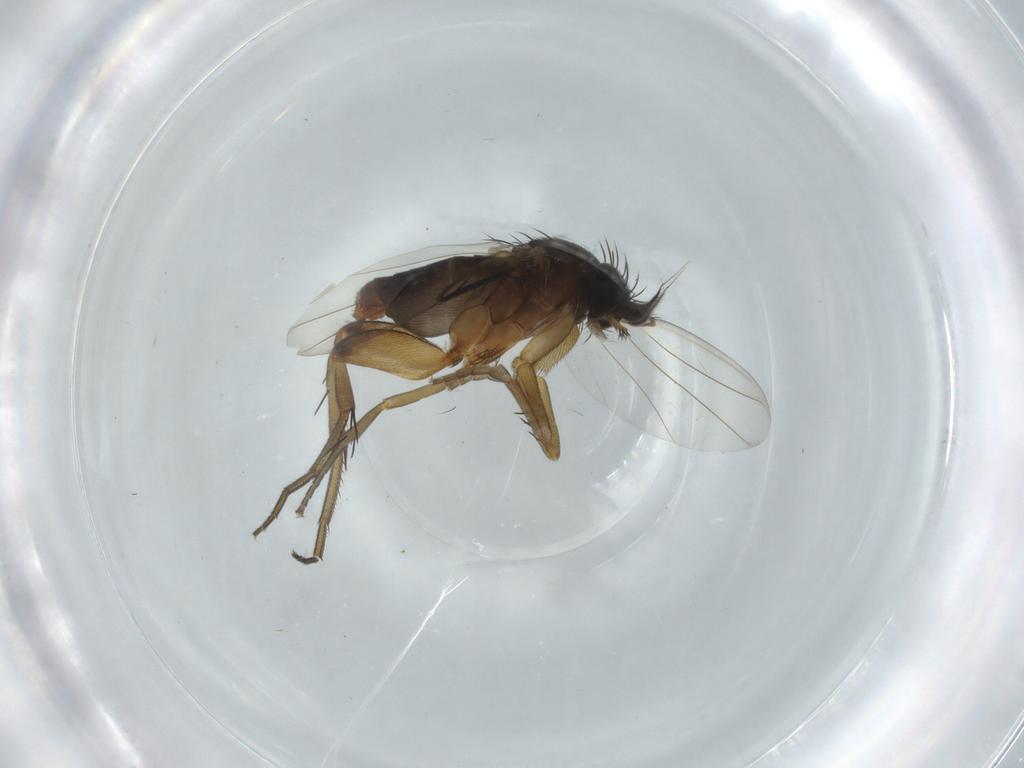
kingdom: Animalia
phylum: Arthropoda
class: Insecta
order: Diptera
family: Phoridae
